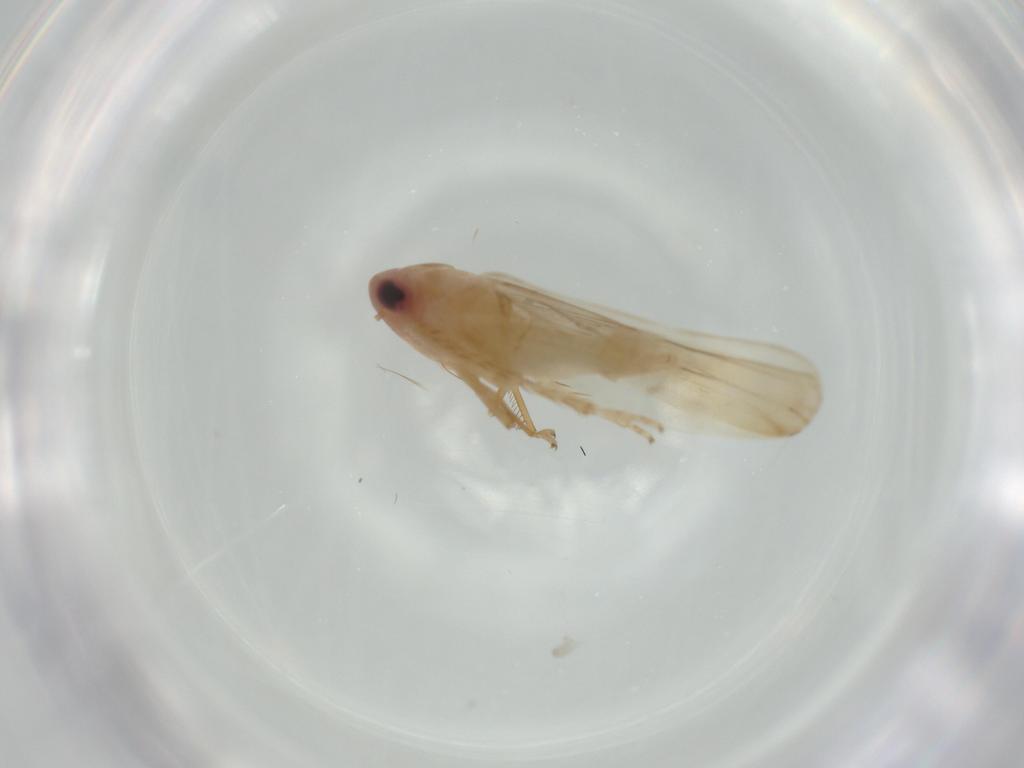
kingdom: Animalia
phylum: Arthropoda
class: Insecta
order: Hemiptera
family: Cicadellidae
